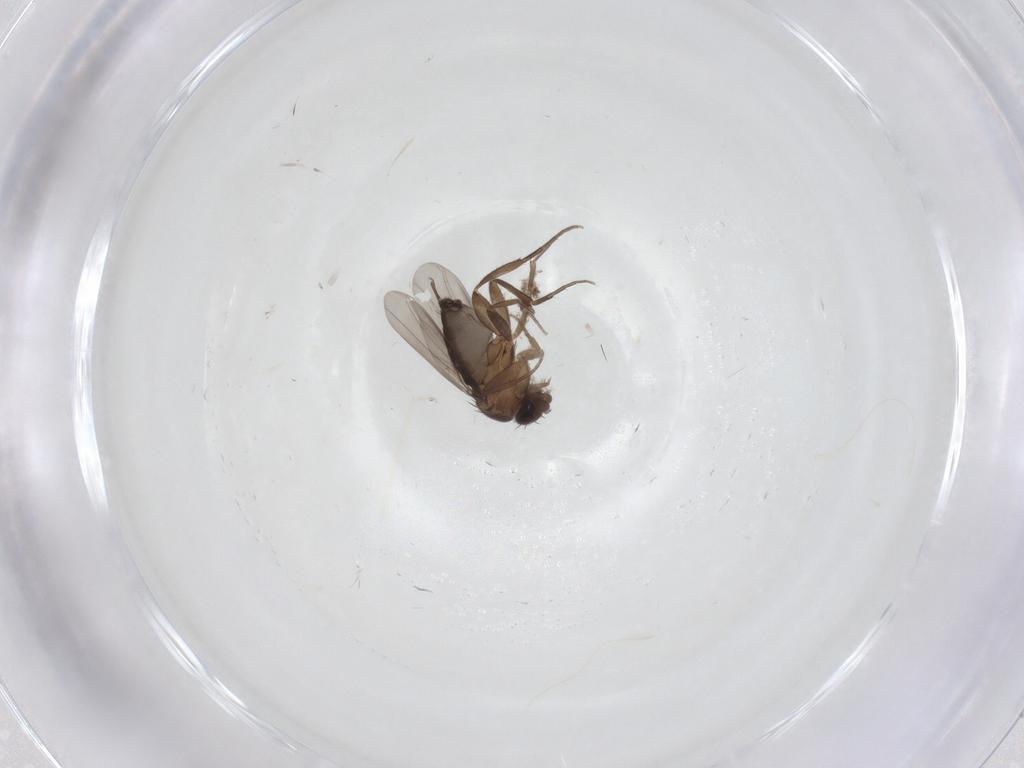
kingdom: Animalia
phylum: Arthropoda
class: Insecta
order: Diptera
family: Phoridae
